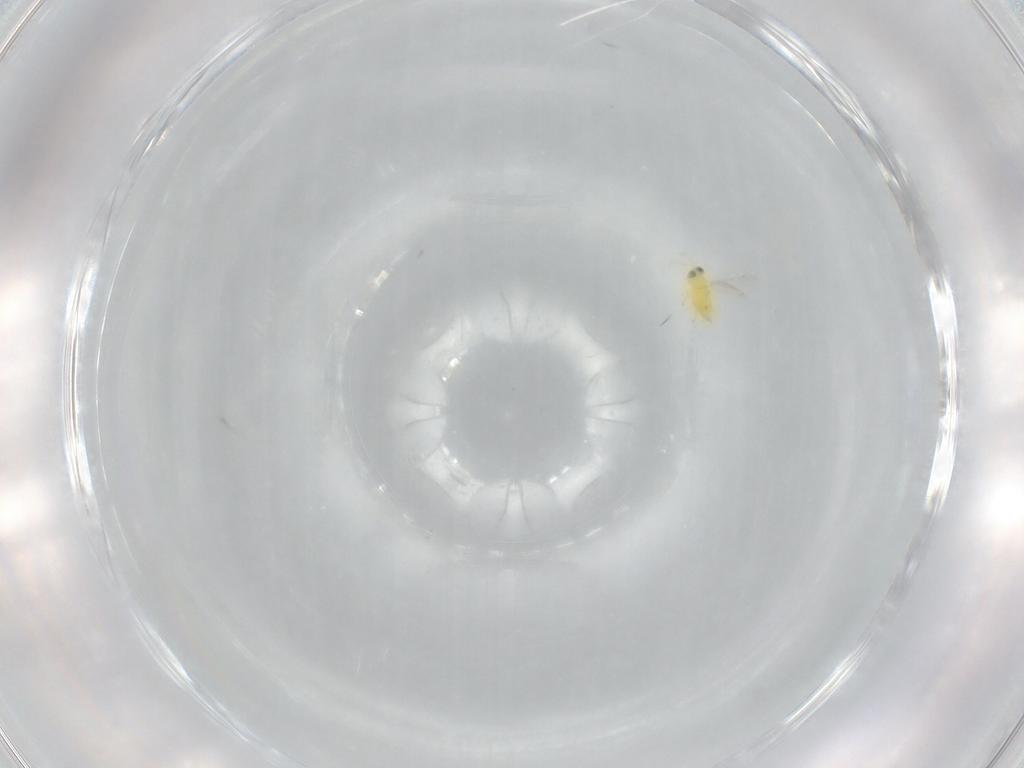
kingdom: Animalia
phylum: Arthropoda
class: Insecta
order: Hymenoptera
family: Aphelinidae
